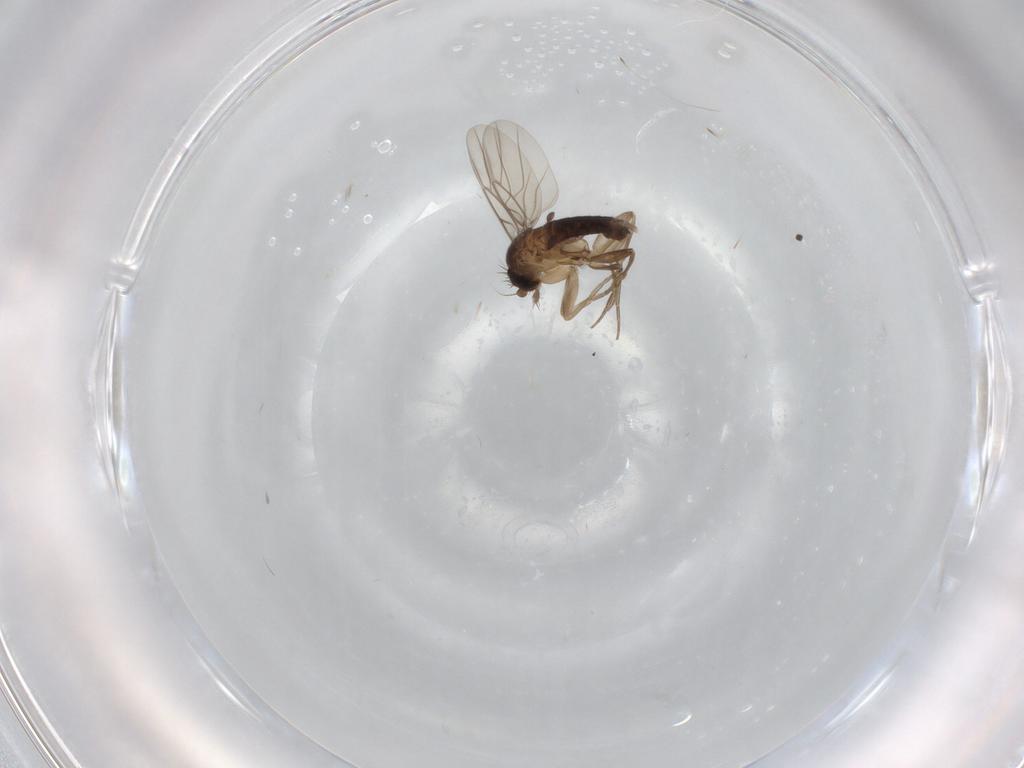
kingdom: Animalia
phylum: Arthropoda
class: Insecta
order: Diptera
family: Phoridae
